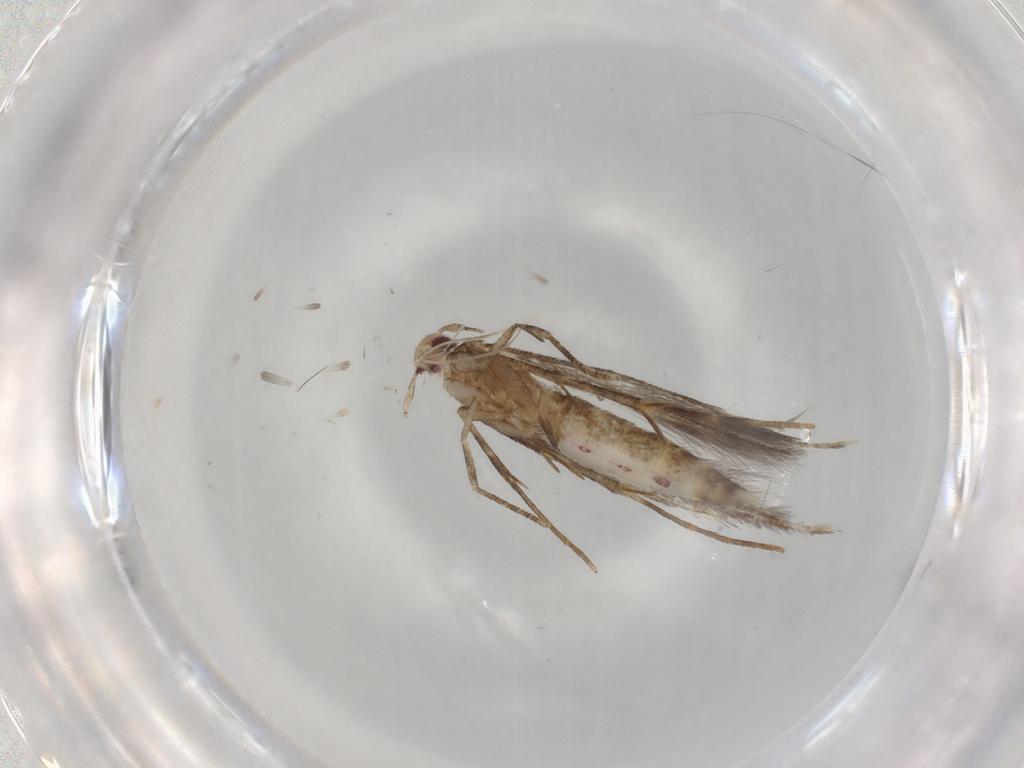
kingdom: Animalia
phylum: Arthropoda
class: Insecta
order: Lepidoptera
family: Cosmopterigidae
